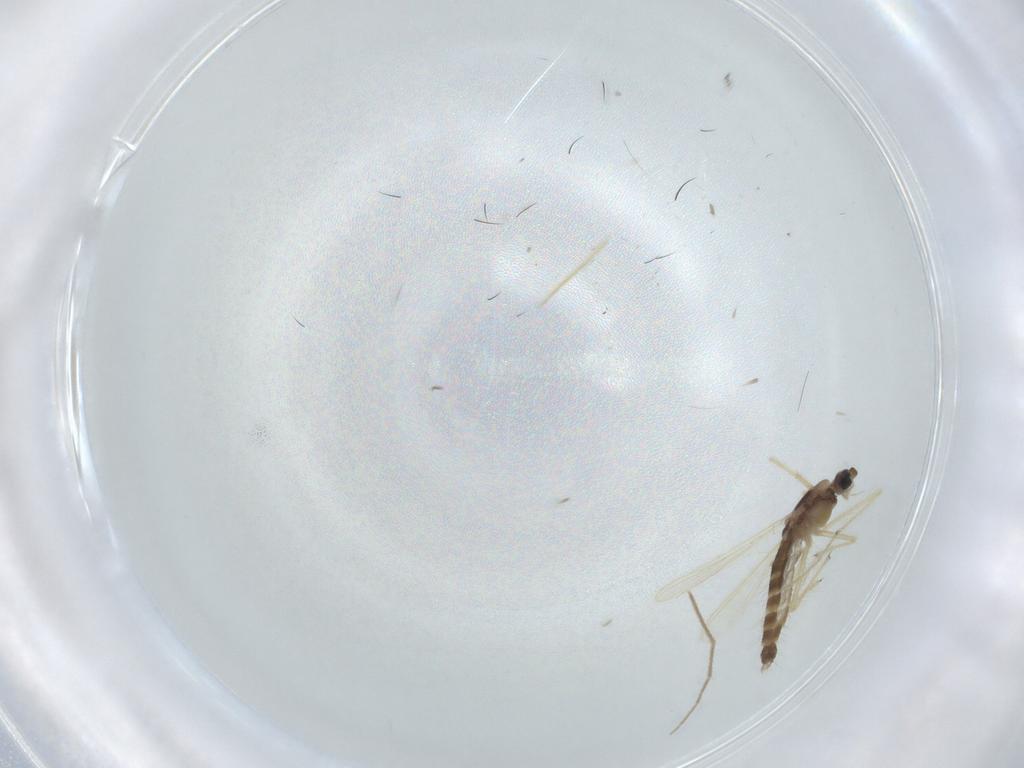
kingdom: Animalia
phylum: Arthropoda
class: Insecta
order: Diptera
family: Chironomidae
